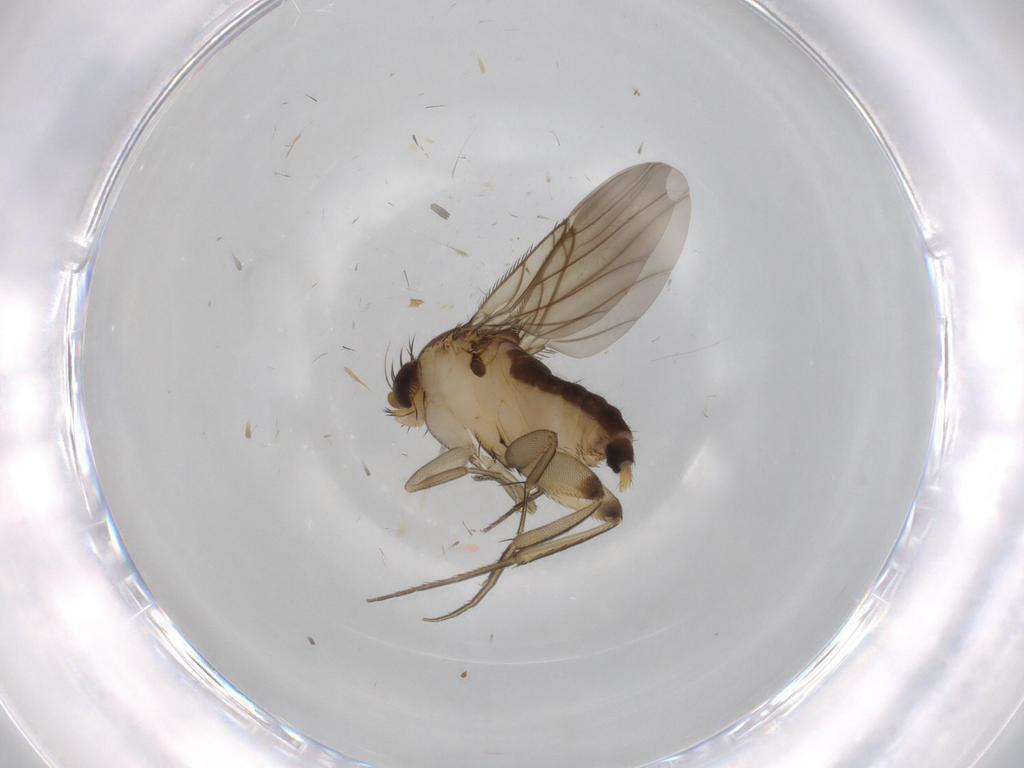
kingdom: Animalia
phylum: Arthropoda
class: Insecta
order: Diptera
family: Phoridae
